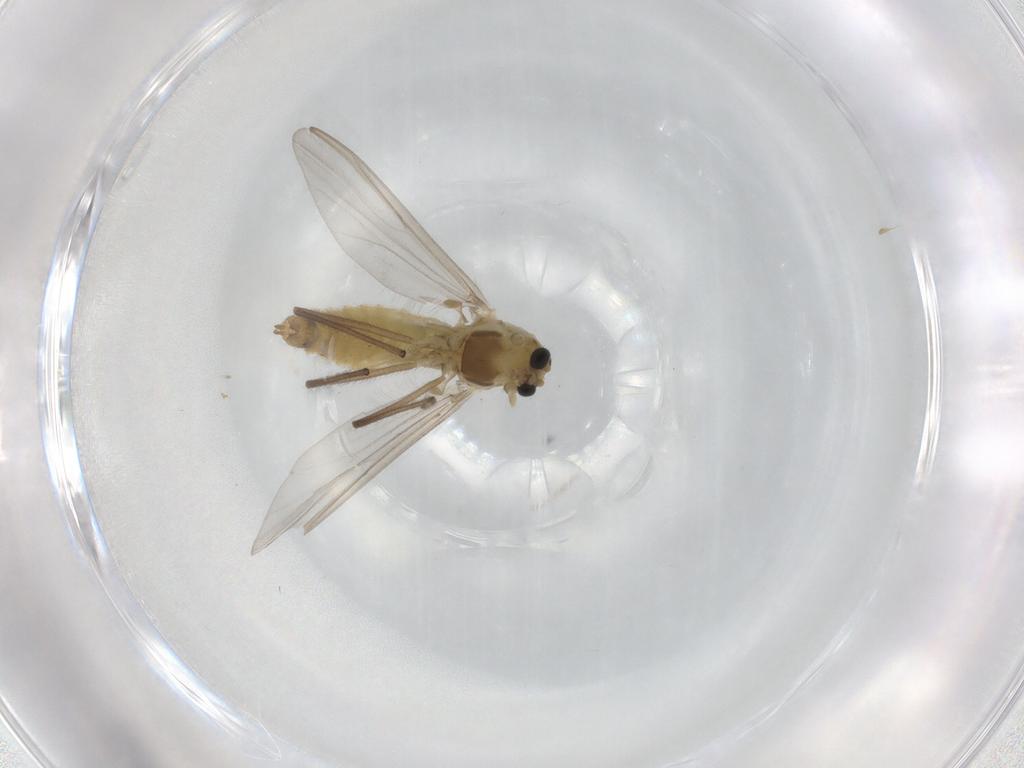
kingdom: Animalia
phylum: Arthropoda
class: Insecta
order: Diptera
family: Chironomidae
